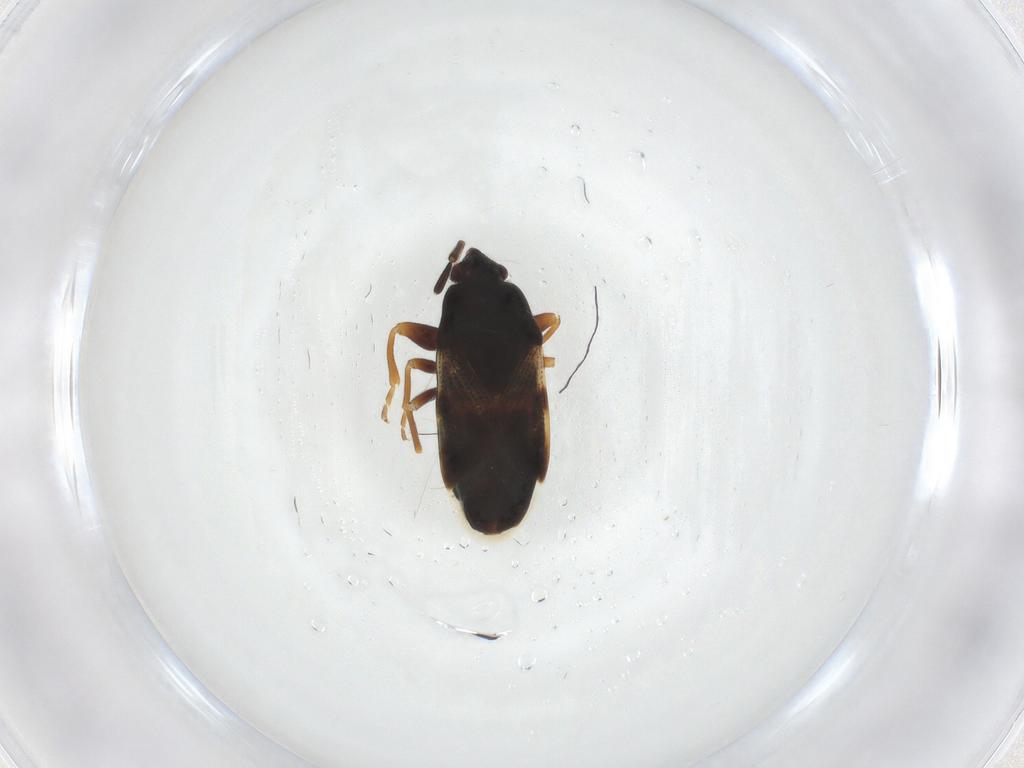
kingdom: Animalia
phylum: Arthropoda
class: Insecta
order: Hemiptera
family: Rhyparochromidae
